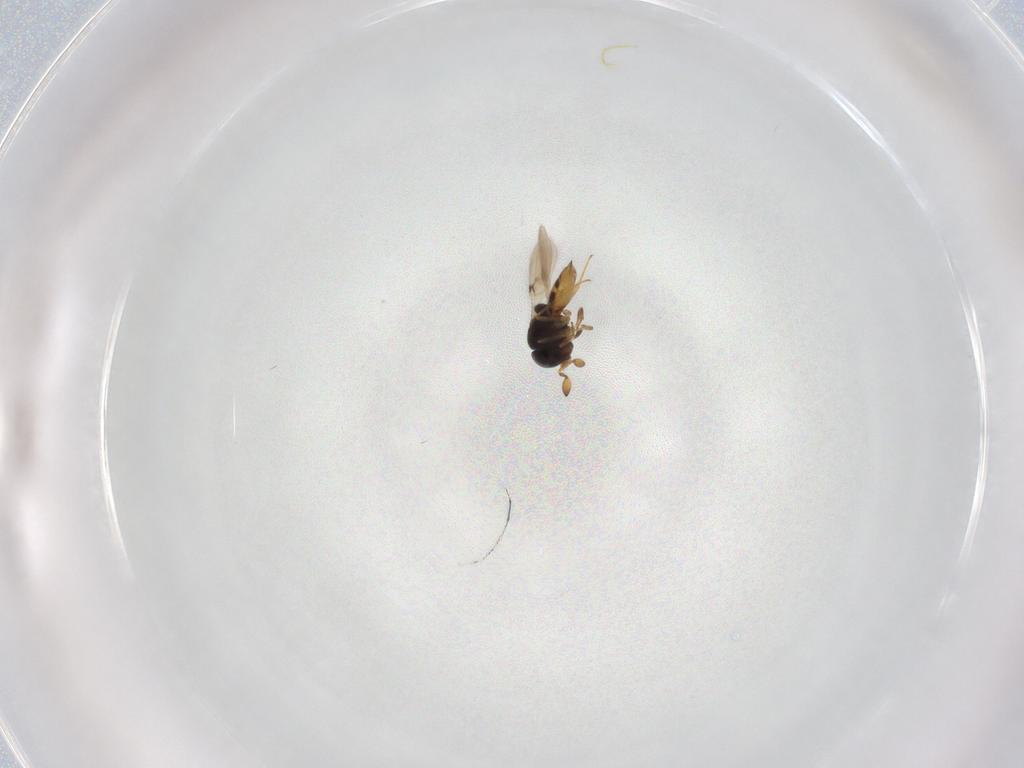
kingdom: Animalia
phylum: Arthropoda
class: Insecta
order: Hymenoptera
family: Scelionidae
